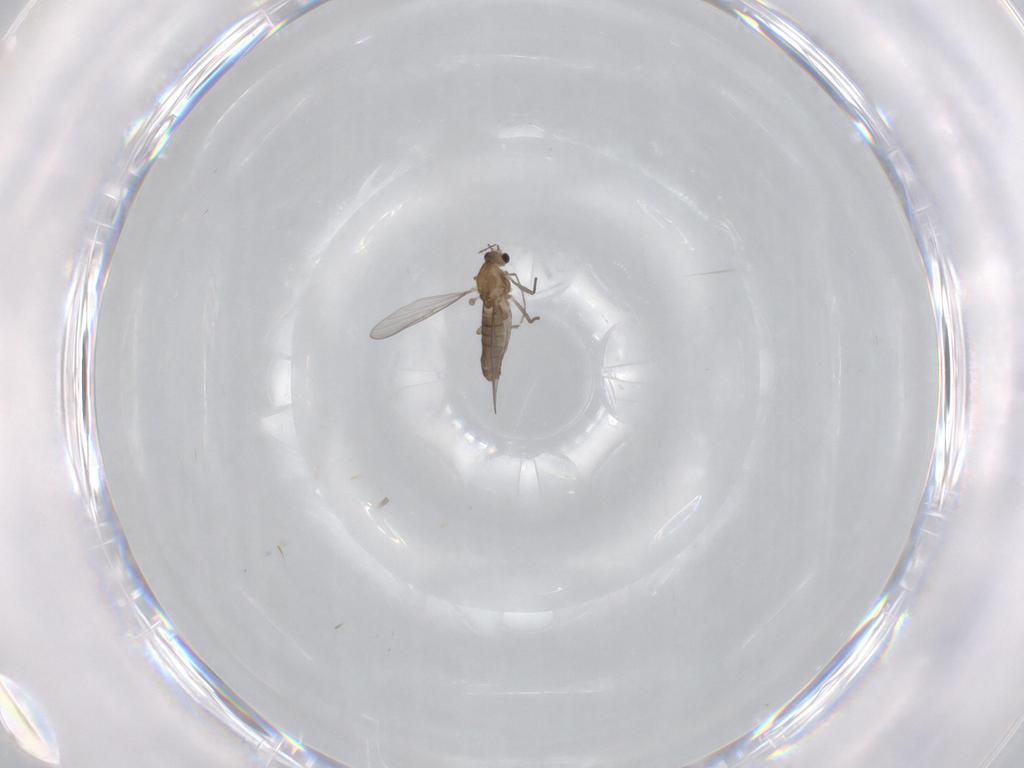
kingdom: Animalia
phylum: Arthropoda
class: Insecta
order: Diptera
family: Chironomidae
